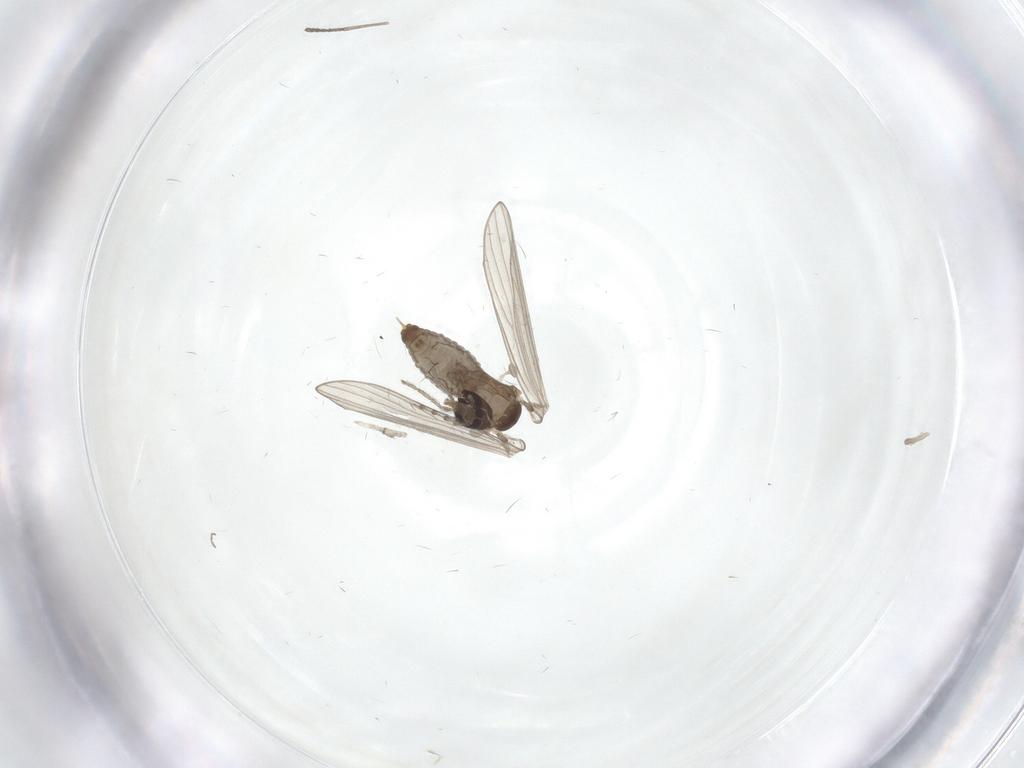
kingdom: Animalia
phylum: Arthropoda
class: Insecta
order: Diptera
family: Psychodidae
